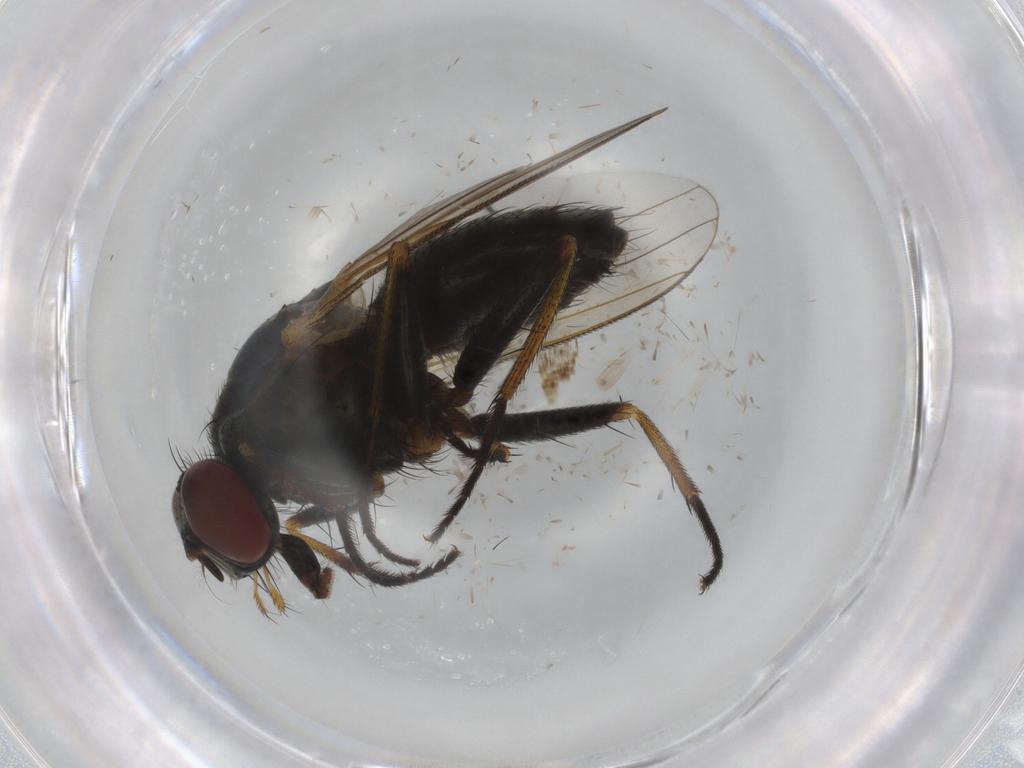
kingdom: Animalia
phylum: Arthropoda
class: Insecta
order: Diptera
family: Muscidae
